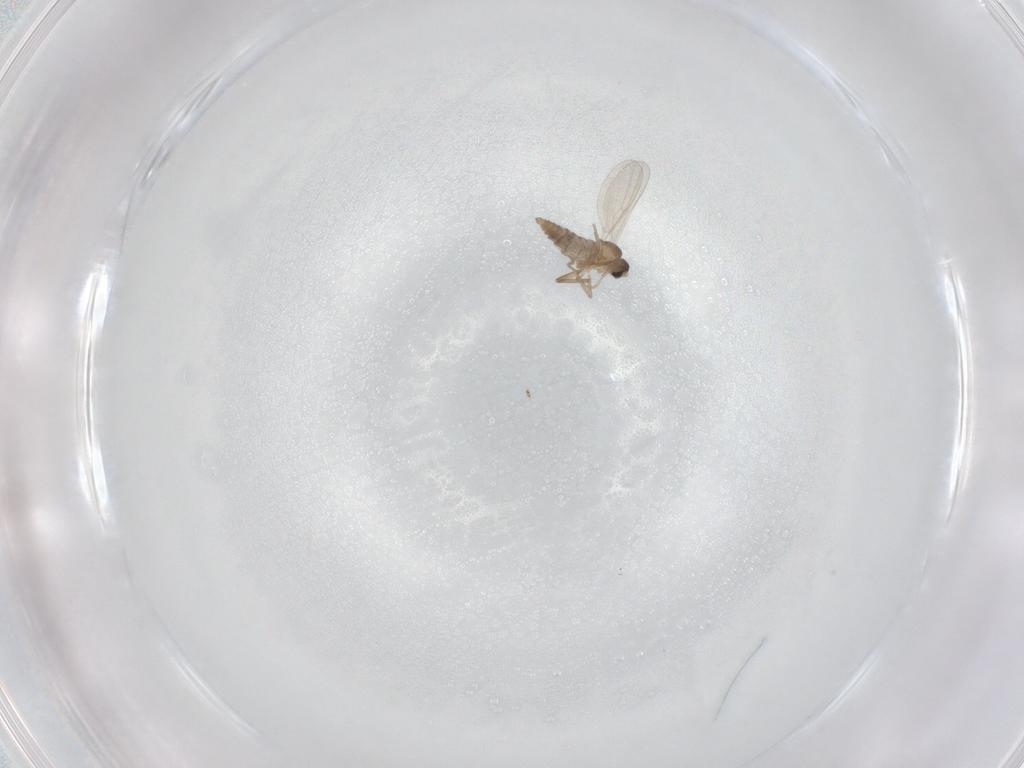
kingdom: Animalia
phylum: Arthropoda
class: Insecta
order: Diptera
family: Cecidomyiidae
